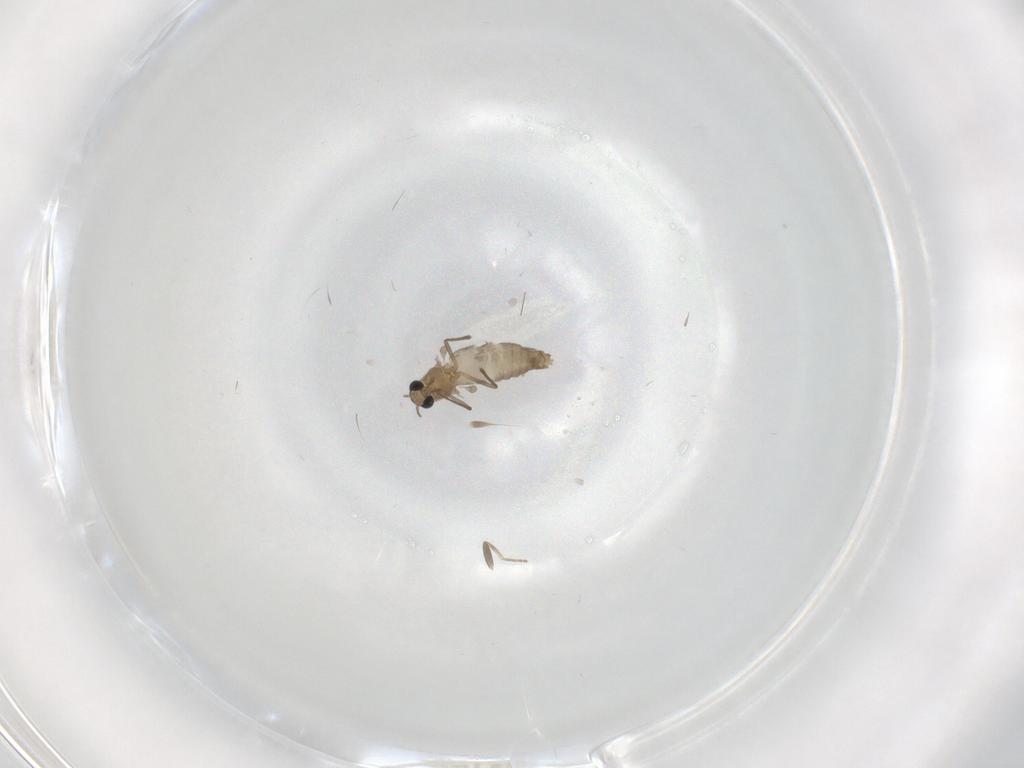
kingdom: Animalia
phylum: Arthropoda
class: Insecta
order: Diptera
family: Chironomidae
